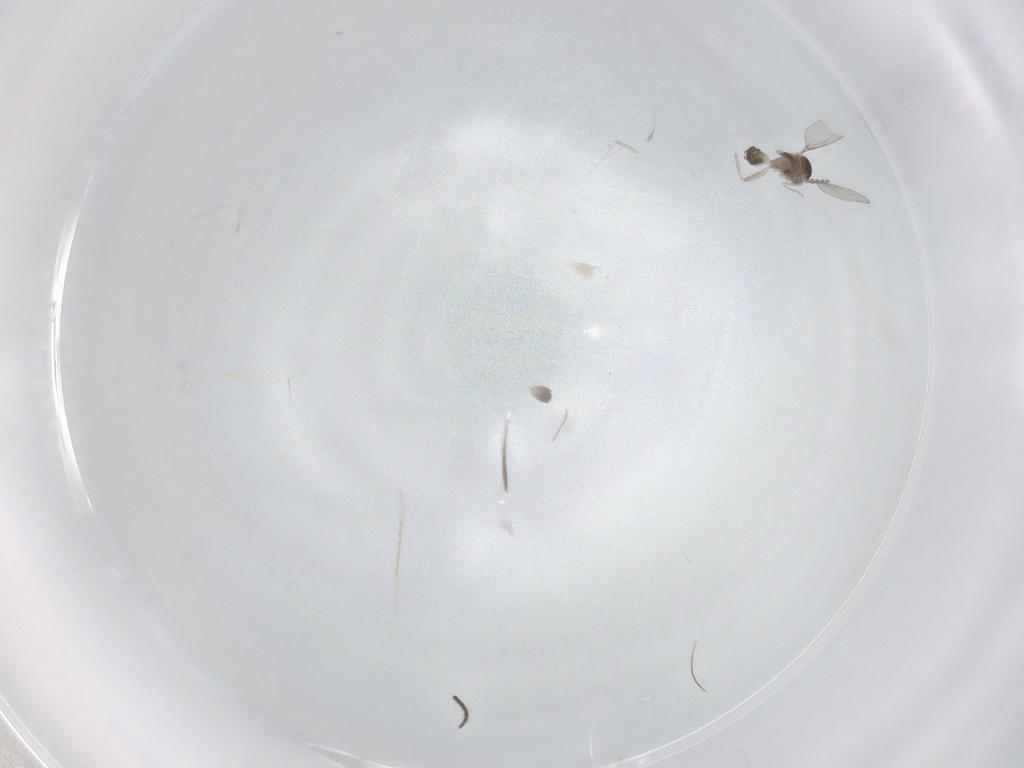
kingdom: Animalia
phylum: Arthropoda
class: Insecta
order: Diptera
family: Cecidomyiidae
